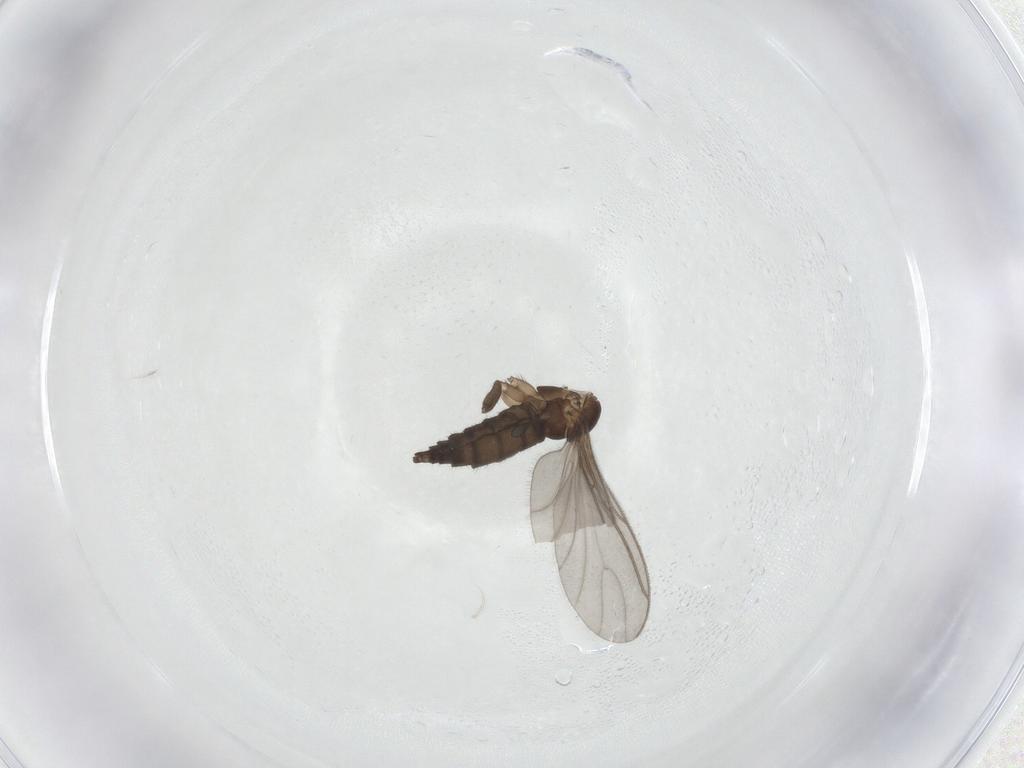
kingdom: Animalia
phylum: Arthropoda
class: Insecta
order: Diptera
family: Sciaridae
